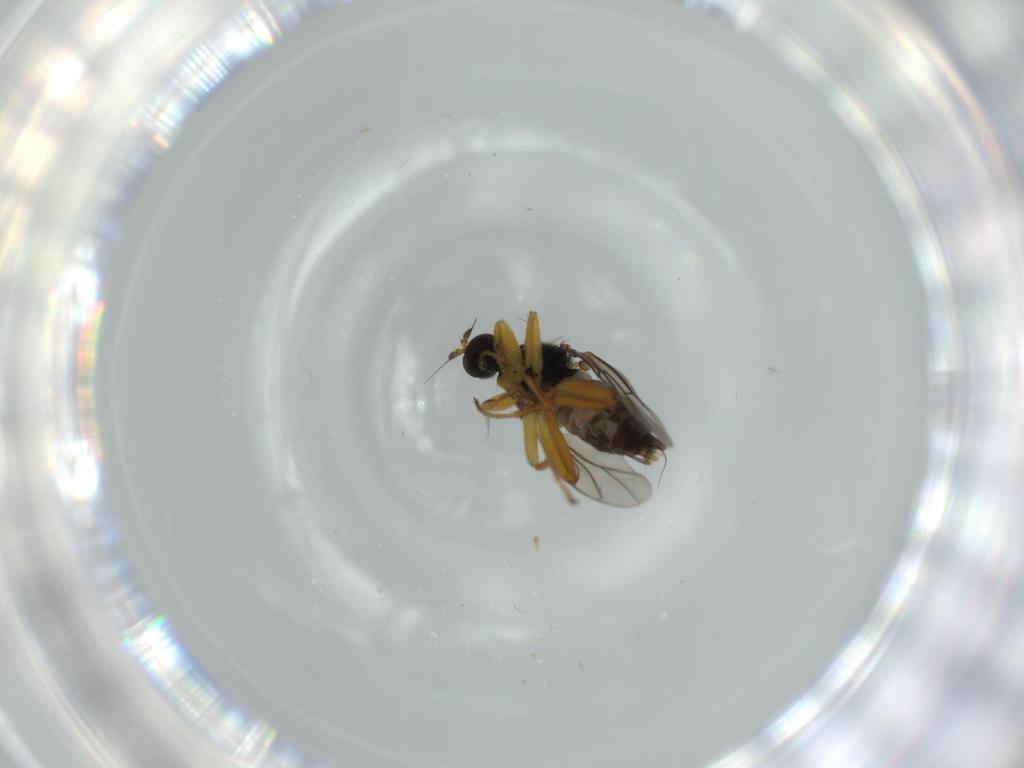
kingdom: Animalia
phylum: Arthropoda
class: Insecta
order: Diptera
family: Hybotidae
